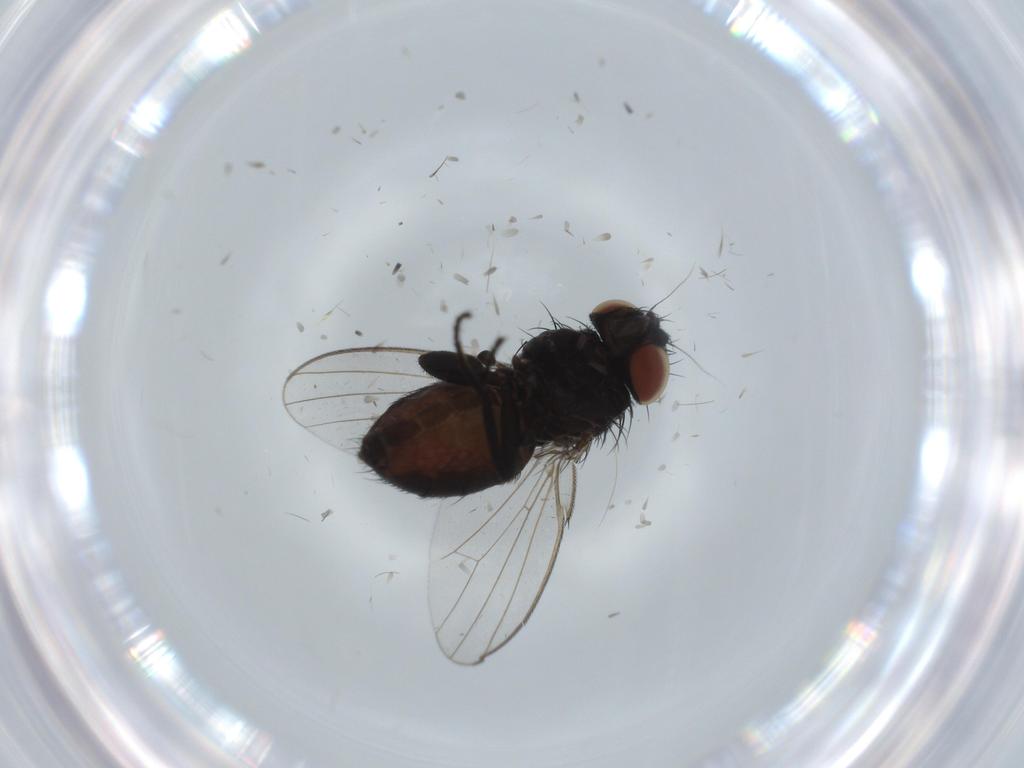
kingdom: Animalia
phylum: Arthropoda
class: Insecta
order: Diptera
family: Milichiidae
